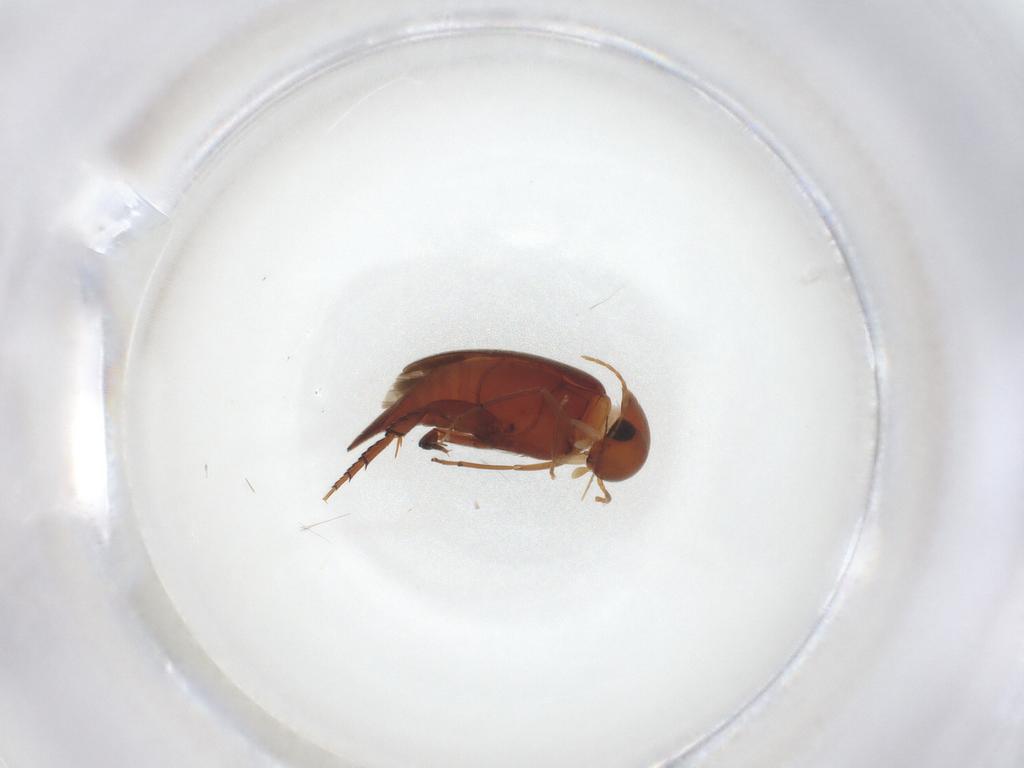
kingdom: Animalia
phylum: Arthropoda
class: Insecta
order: Coleoptera
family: Mordellidae
